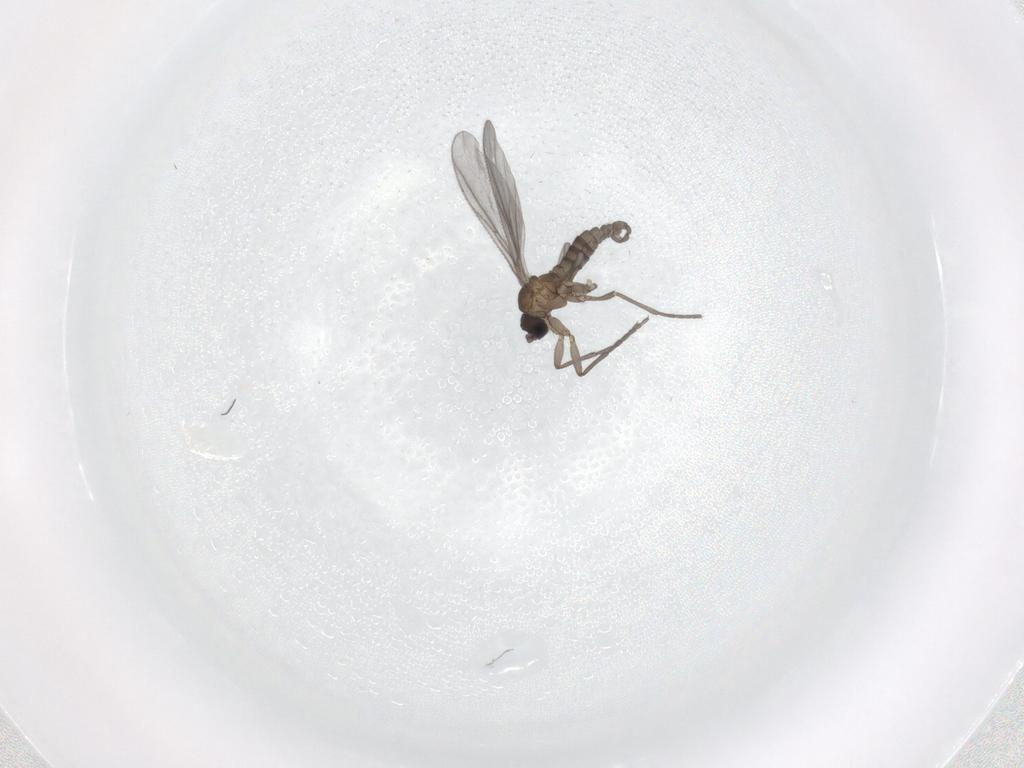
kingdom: Animalia
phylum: Arthropoda
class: Insecta
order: Diptera
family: Sciaridae
